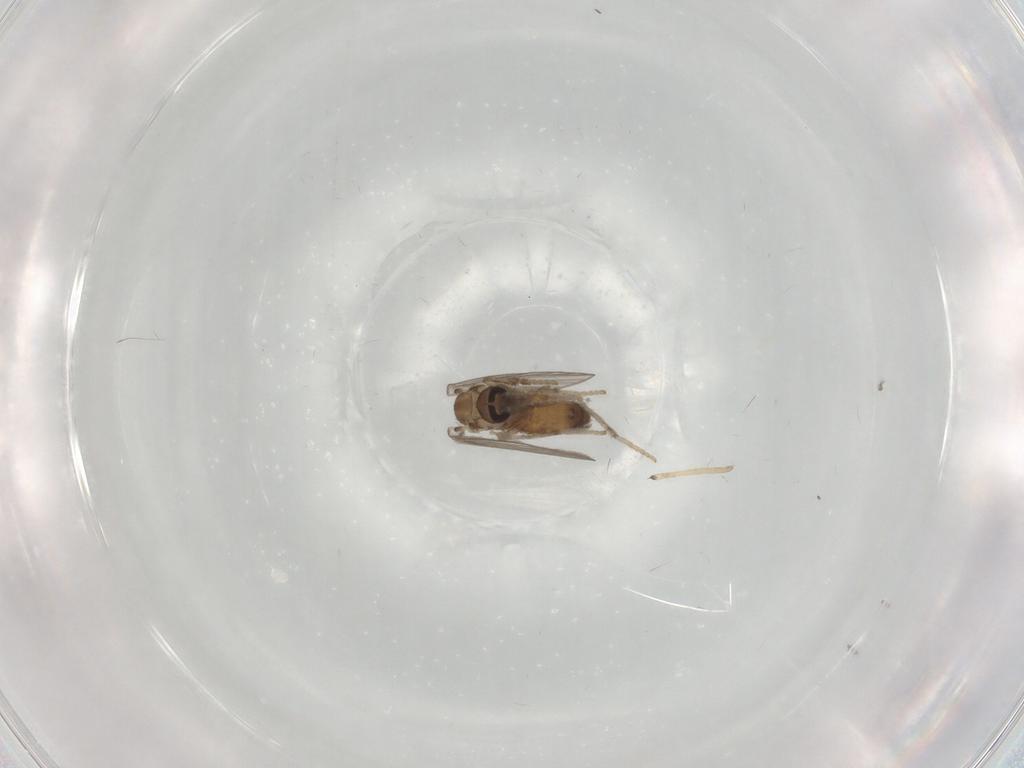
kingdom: Animalia
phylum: Arthropoda
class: Insecta
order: Diptera
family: Psychodidae
